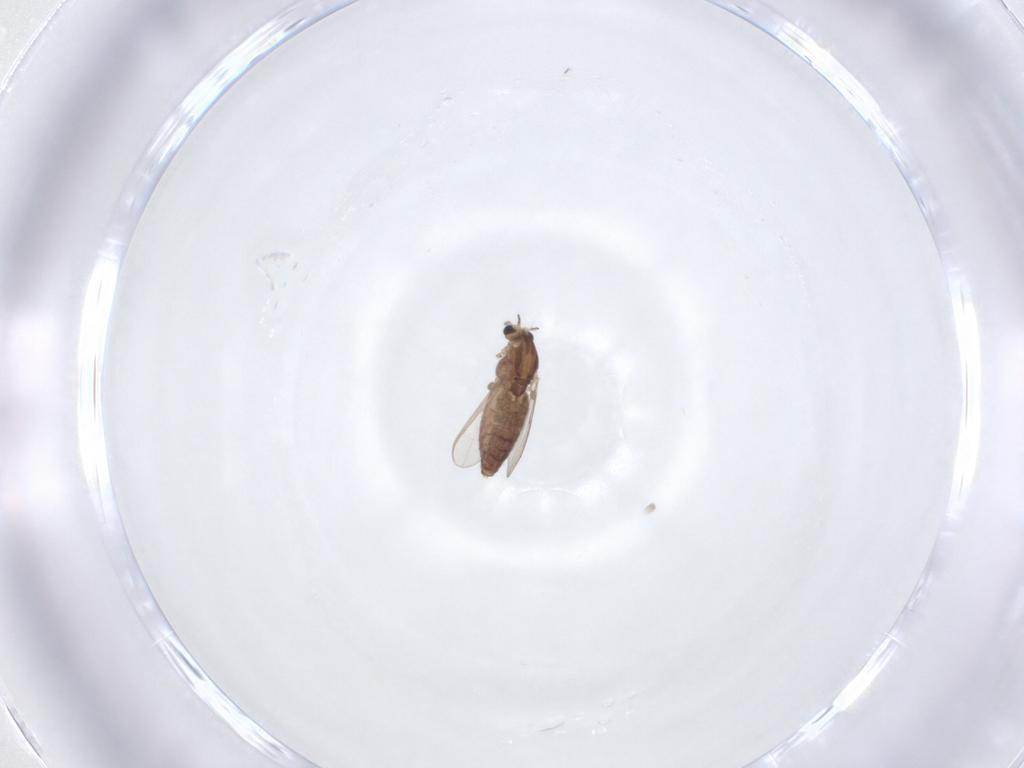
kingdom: Animalia
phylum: Arthropoda
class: Insecta
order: Diptera
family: Chironomidae
